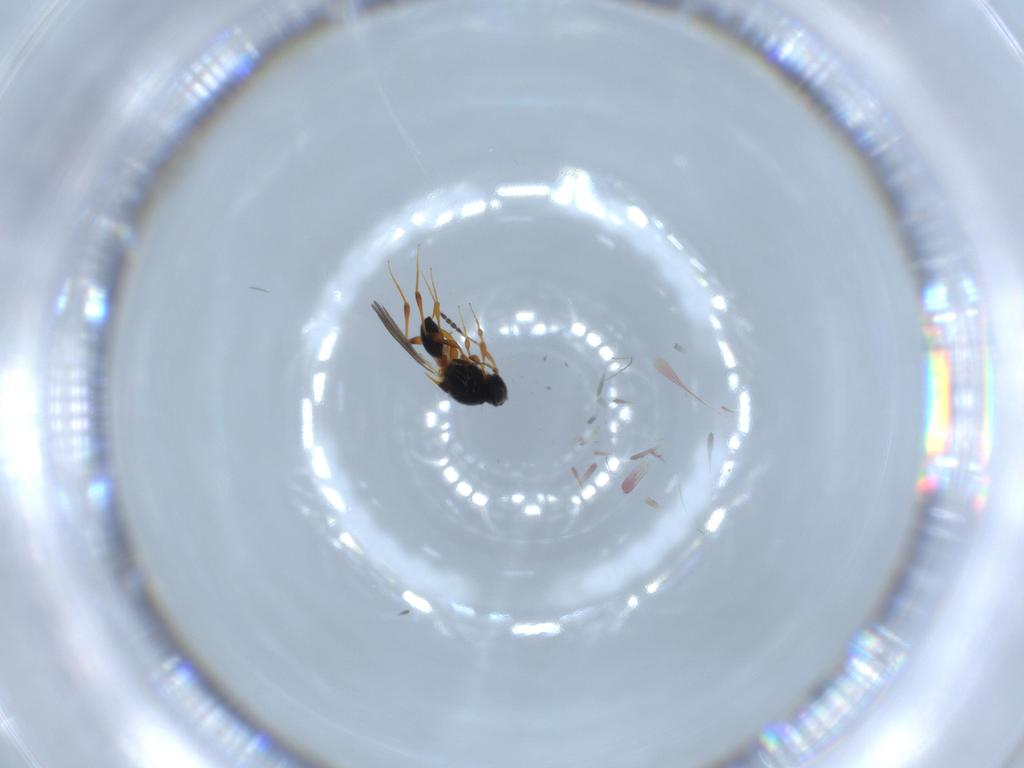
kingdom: Animalia
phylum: Arthropoda
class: Insecta
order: Hymenoptera
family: Platygastridae
